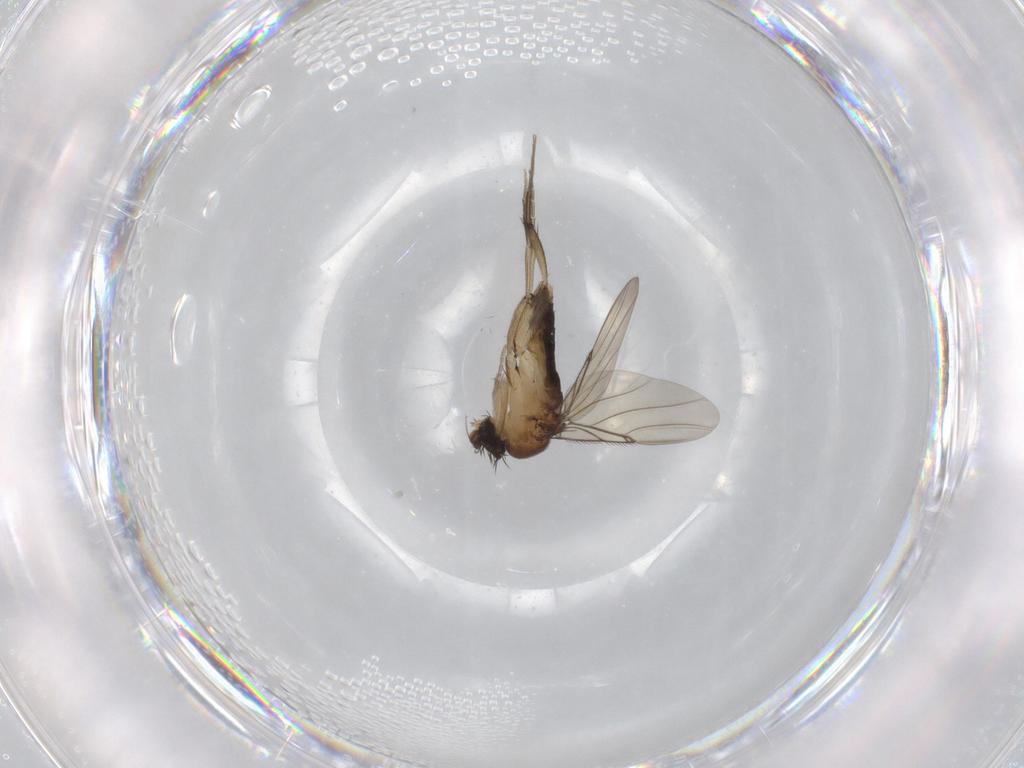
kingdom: Animalia
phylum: Arthropoda
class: Insecta
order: Diptera
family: Phoridae
